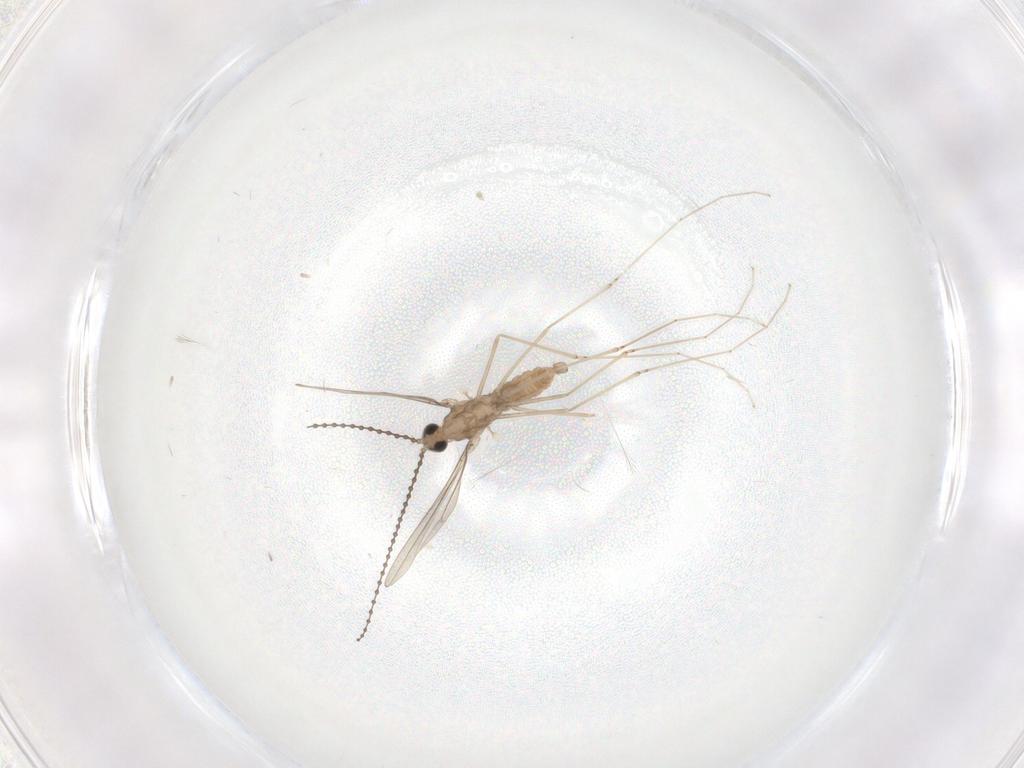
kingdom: Animalia
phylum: Arthropoda
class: Insecta
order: Diptera
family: Cecidomyiidae
